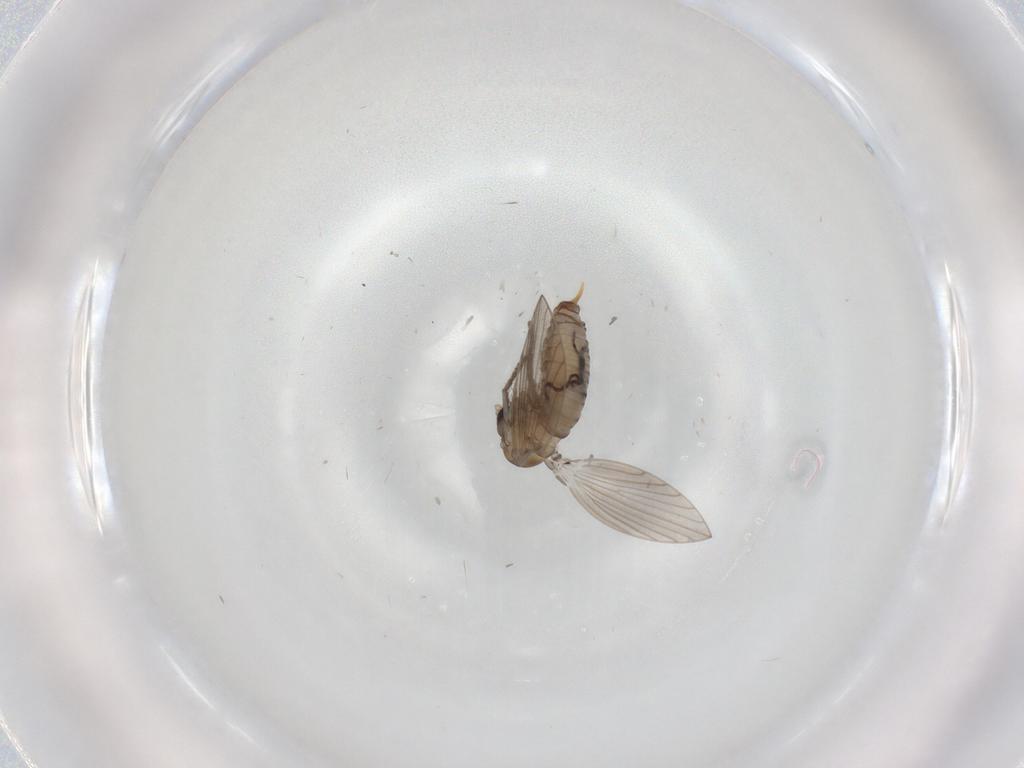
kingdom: Animalia
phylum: Arthropoda
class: Insecta
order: Diptera
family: Psychodidae
